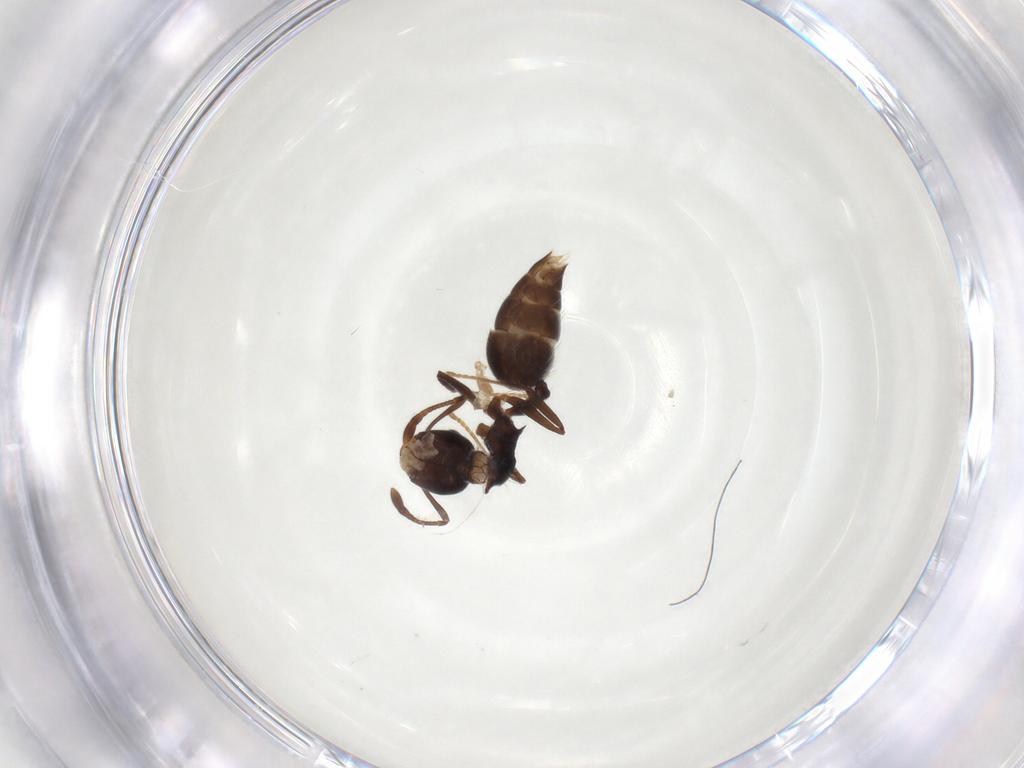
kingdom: Animalia
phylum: Arthropoda
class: Insecta
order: Hymenoptera
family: Formicidae
